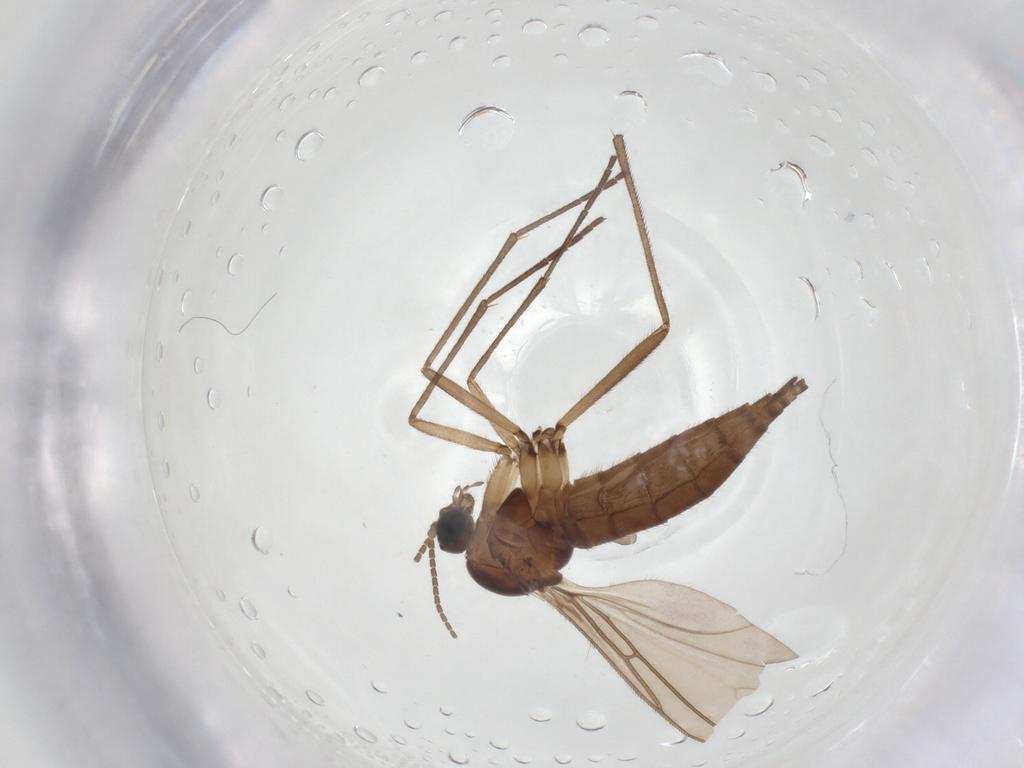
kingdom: Animalia
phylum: Arthropoda
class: Insecta
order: Diptera
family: Sciaridae
